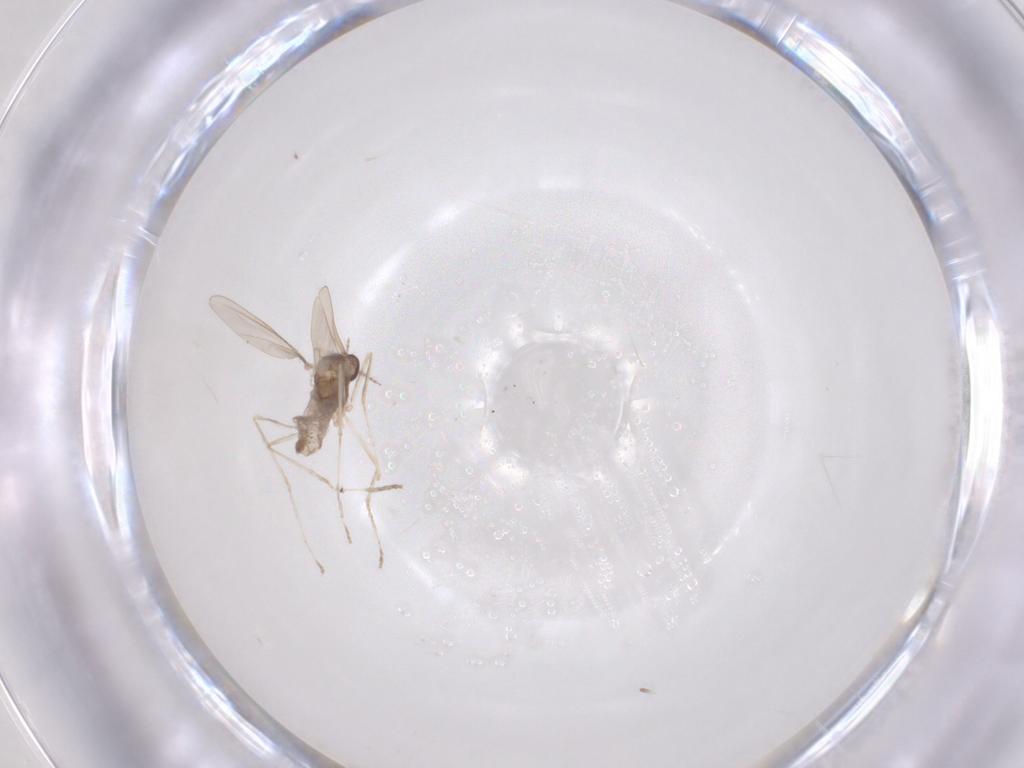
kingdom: Animalia
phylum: Arthropoda
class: Insecta
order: Diptera
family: Cecidomyiidae
